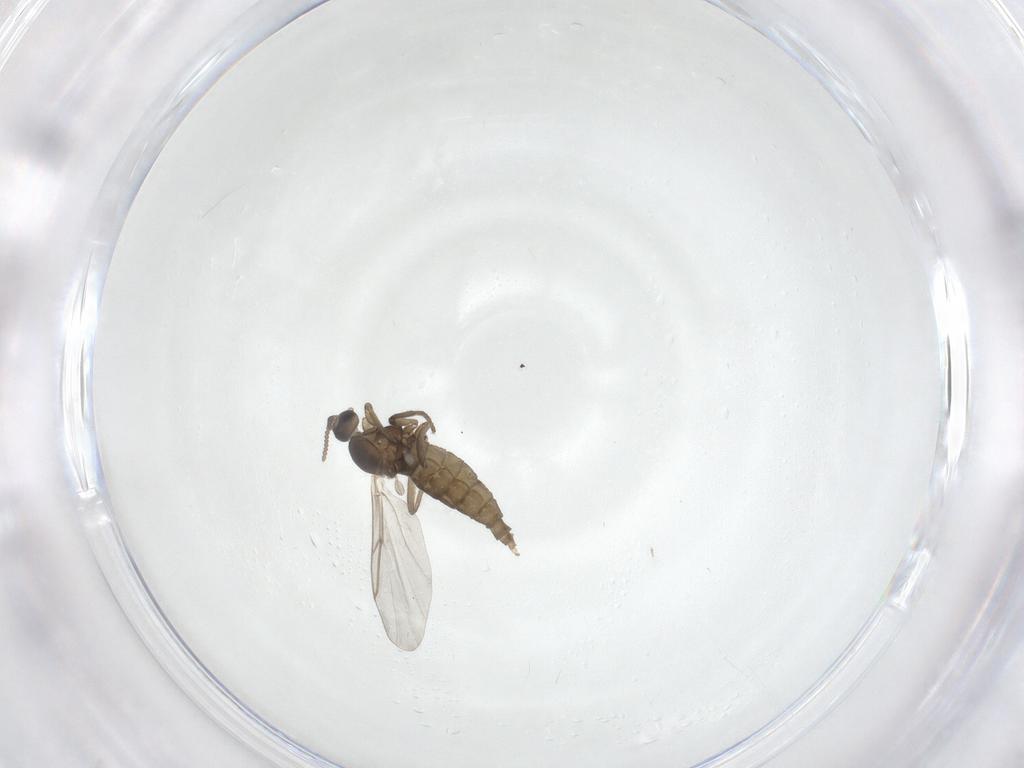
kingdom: Animalia
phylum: Arthropoda
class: Insecta
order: Diptera
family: Cecidomyiidae
